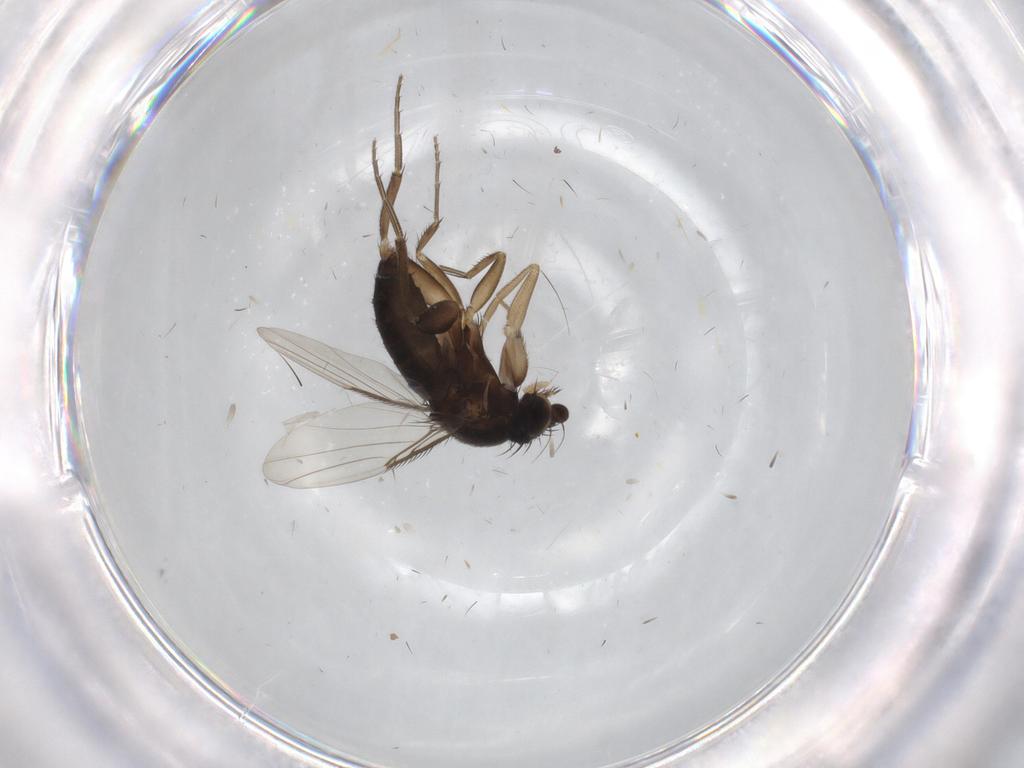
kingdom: Animalia
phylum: Arthropoda
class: Insecta
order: Diptera
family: Phoridae
